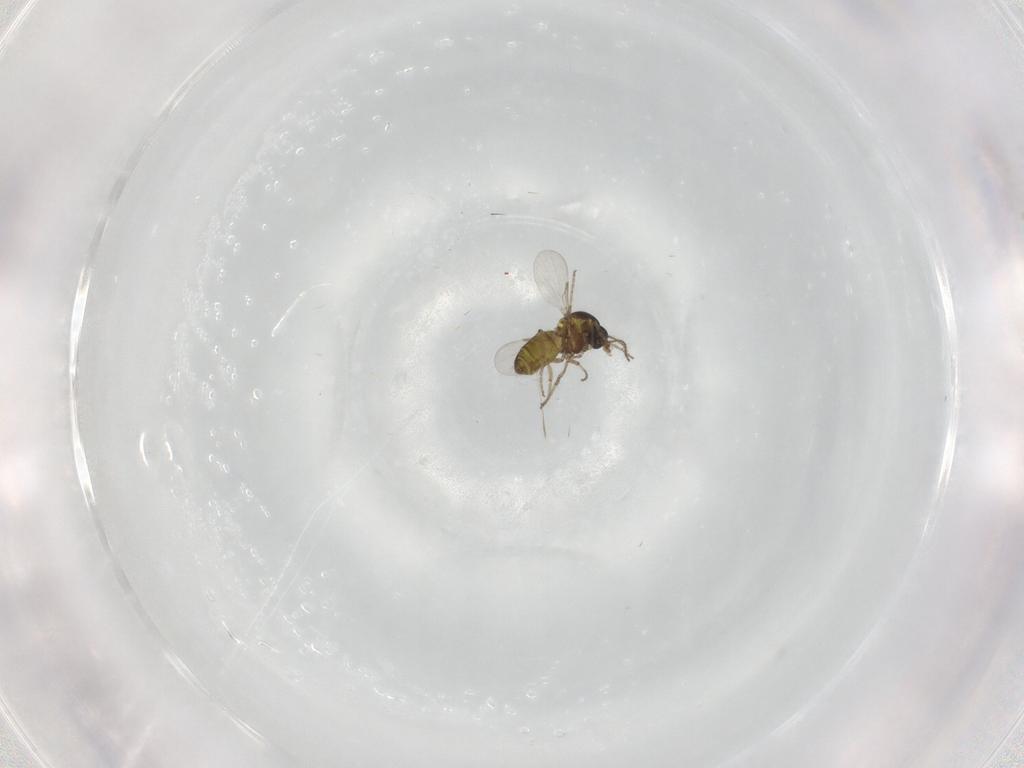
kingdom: Animalia
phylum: Arthropoda
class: Insecta
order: Diptera
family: Ceratopogonidae
